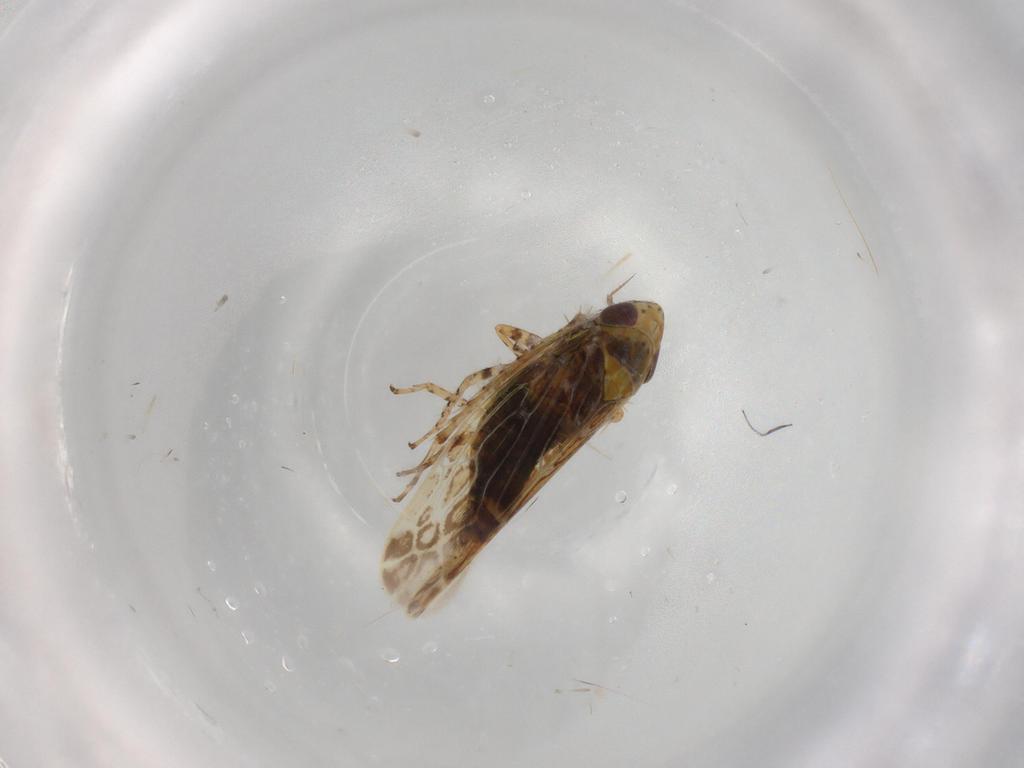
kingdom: Animalia
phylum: Arthropoda
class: Insecta
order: Hemiptera
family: Cicadellidae
